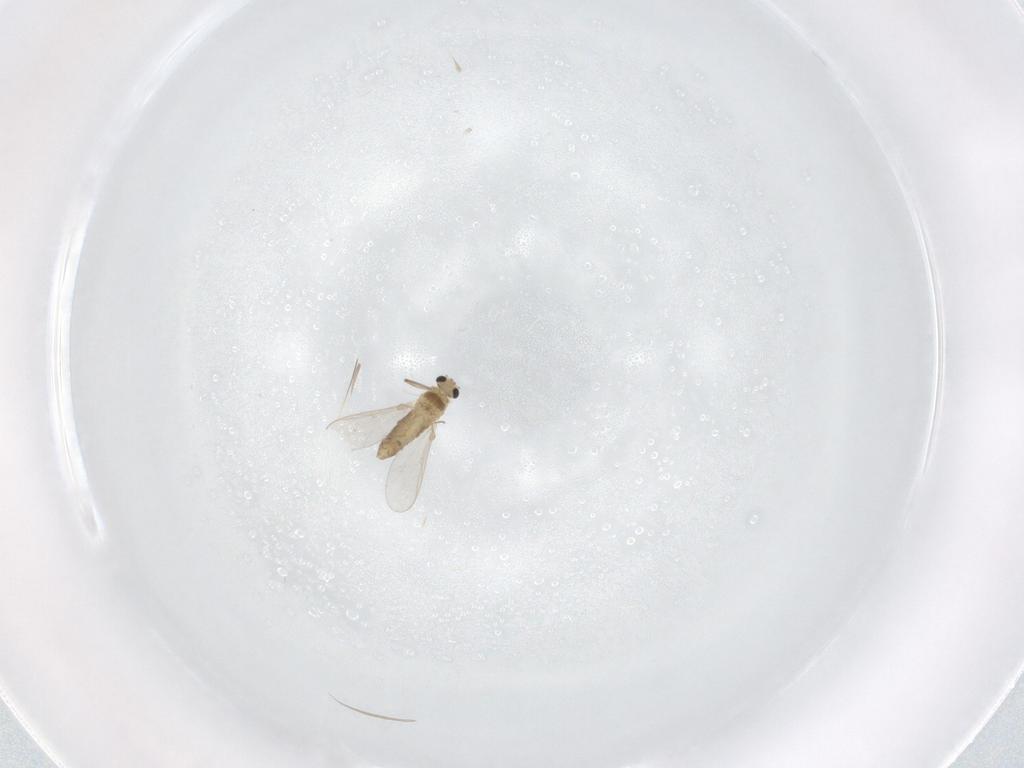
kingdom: Animalia
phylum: Arthropoda
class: Insecta
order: Diptera
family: Chironomidae
